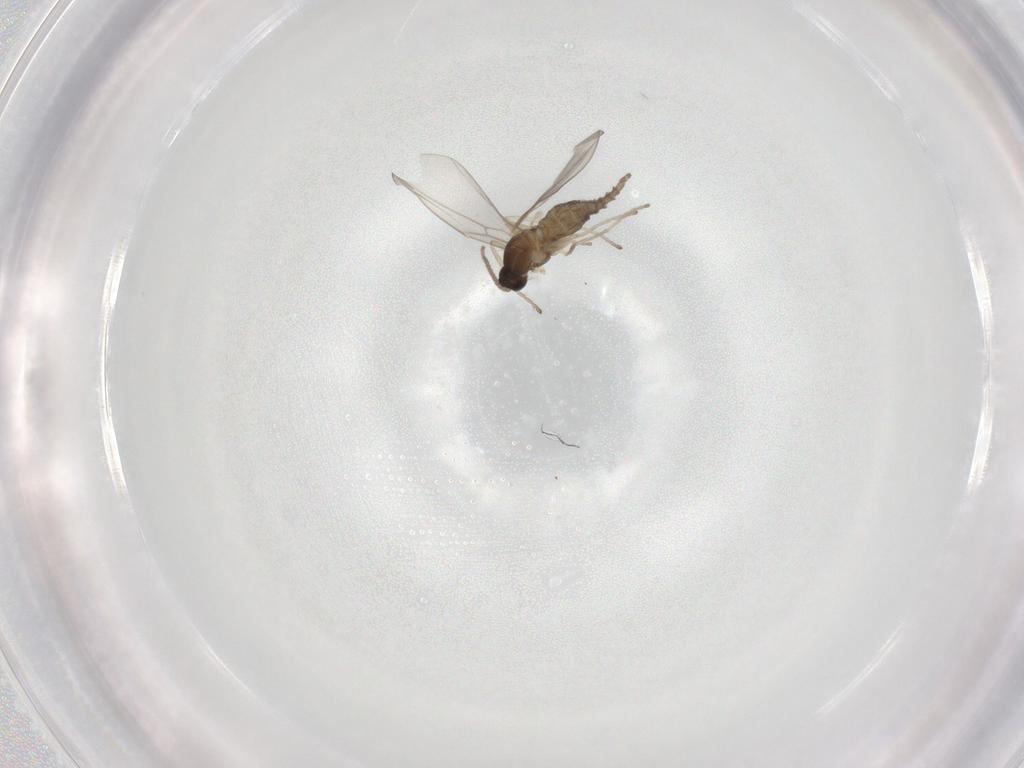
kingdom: Animalia
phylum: Arthropoda
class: Insecta
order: Diptera
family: Cecidomyiidae
